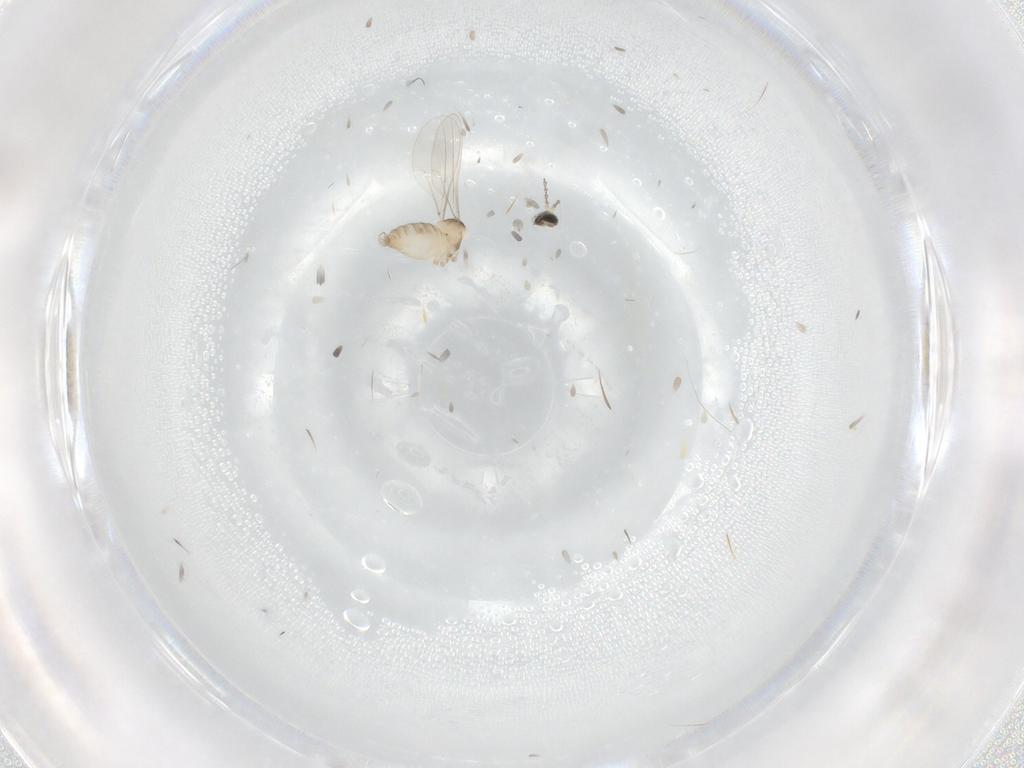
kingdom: Animalia
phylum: Arthropoda
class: Insecta
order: Diptera
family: Cecidomyiidae
